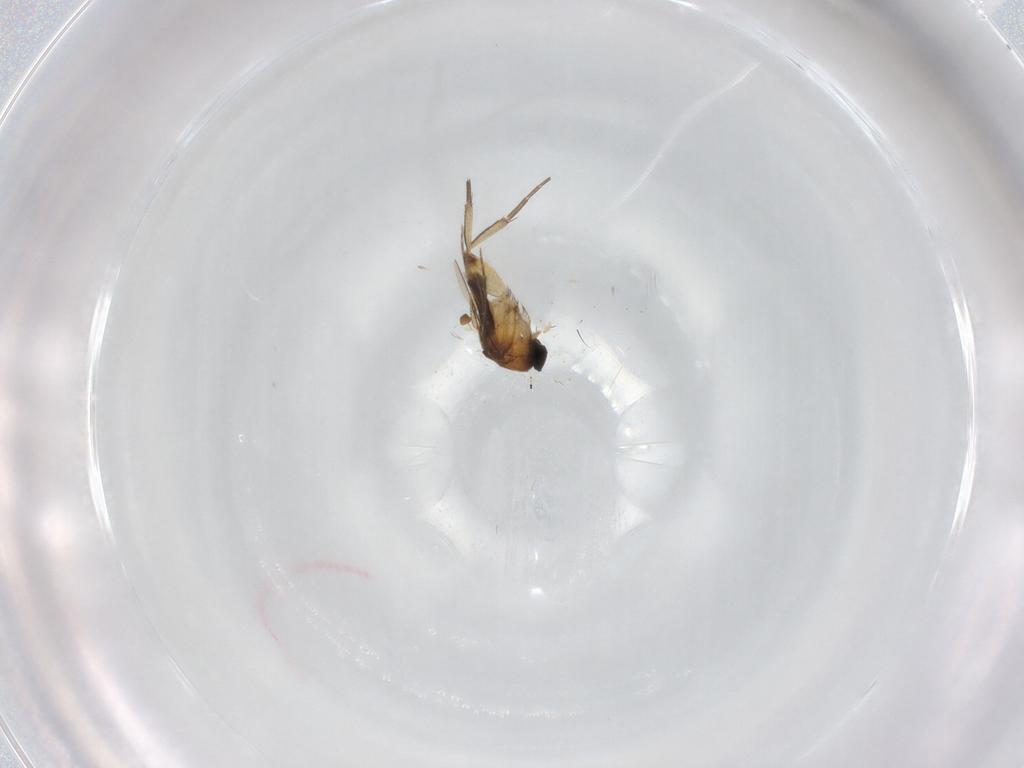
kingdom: Animalia
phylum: Arthropoda
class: Insecta
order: Diptera
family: Phoridae
